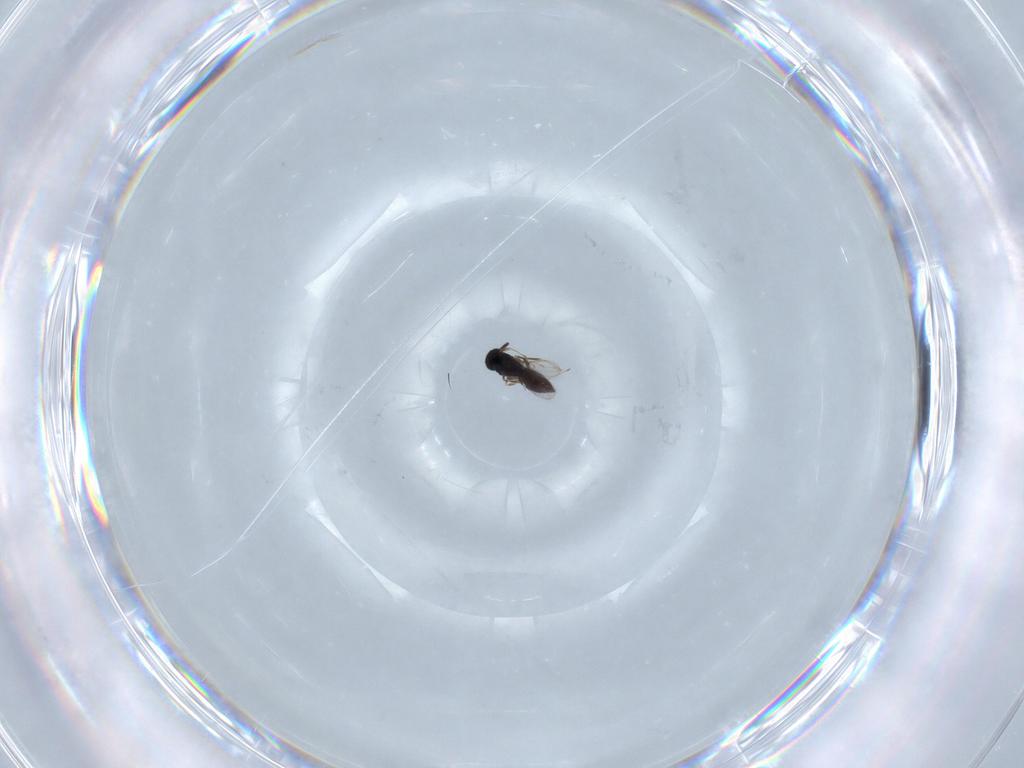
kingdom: Animalia
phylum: Arthropoda
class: Insecta
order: Hymenoptera
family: Scelionidae
